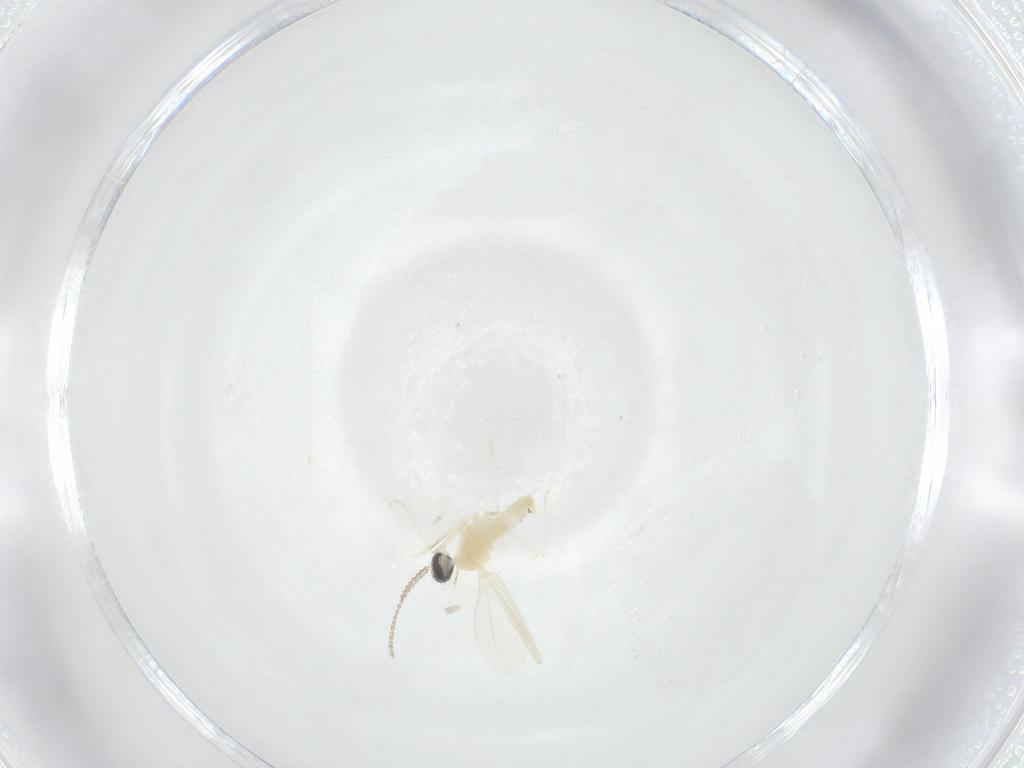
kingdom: Animalia
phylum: Arthropoda
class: Insecta
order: Diptera
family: Cecidomyiidae
